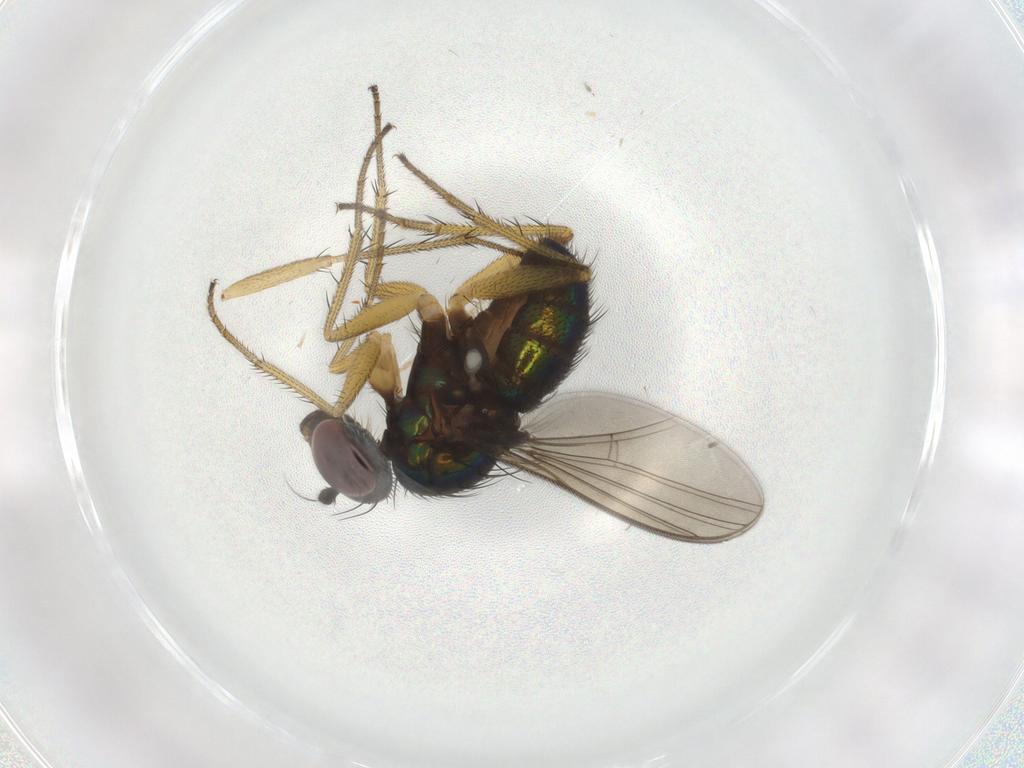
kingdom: Animalia
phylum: Arthropoda
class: Insecta
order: Diptera
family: Dolichopodidae
